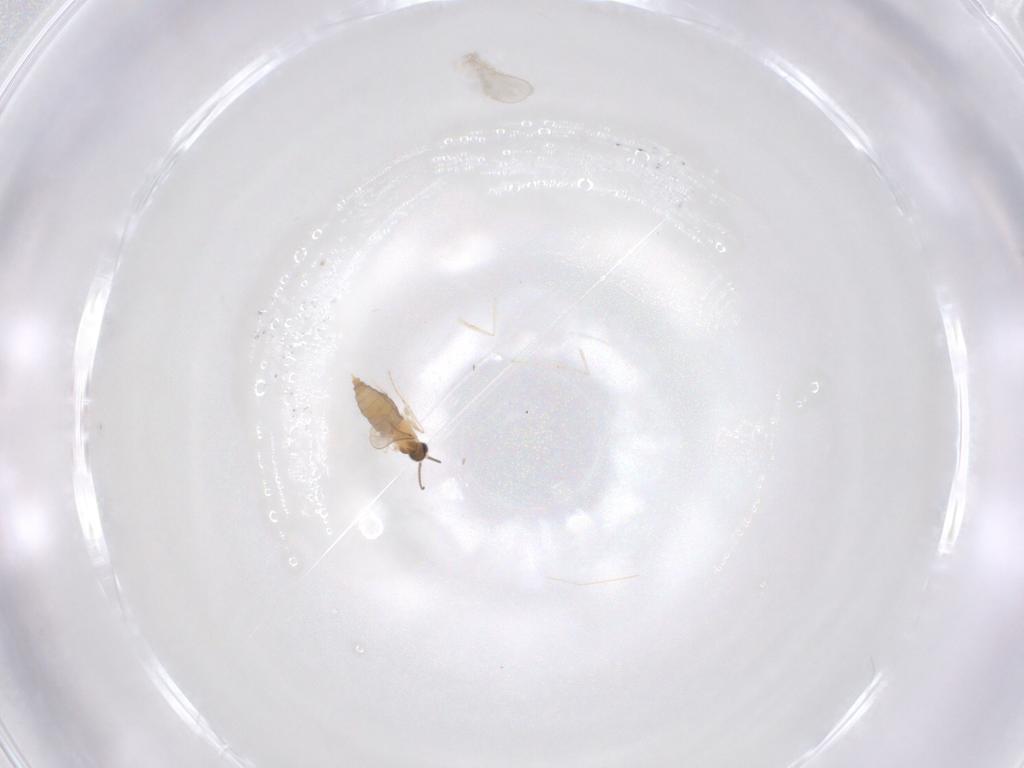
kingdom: Animalia
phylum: Arthropoda
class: Insecta
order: Diptera
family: Cecidomyiidae
